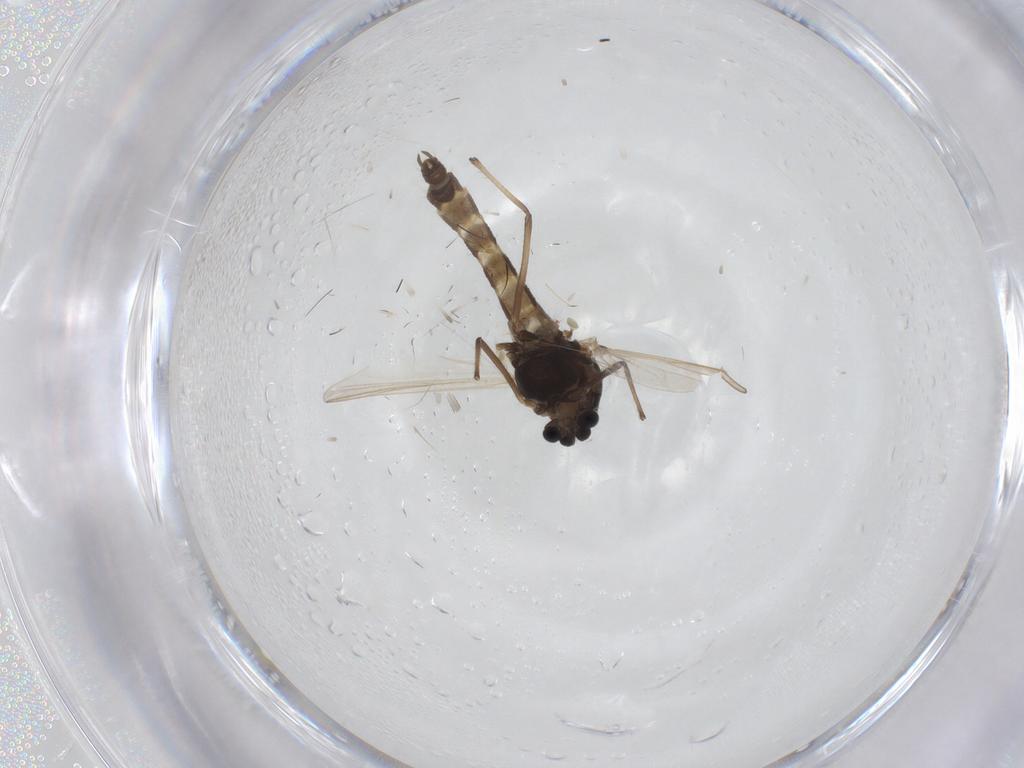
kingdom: Animalia
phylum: Arthropoda
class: Insecta
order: Diptera
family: Chironomidae
